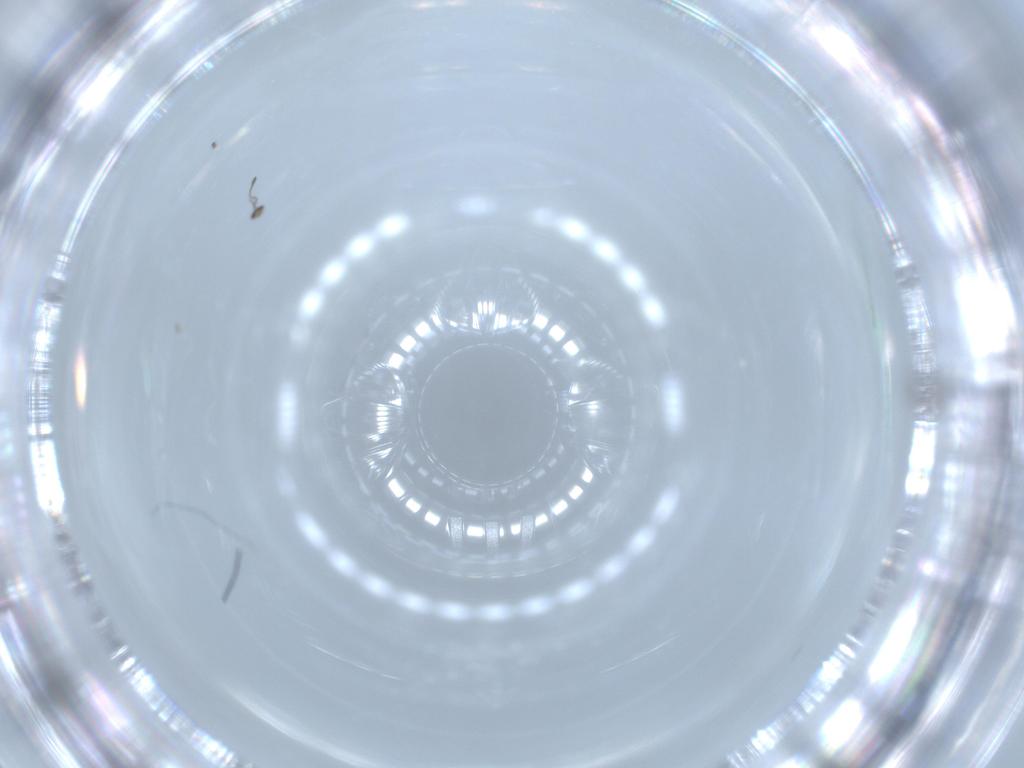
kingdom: Animalia
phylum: Arthropoda
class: Insecta
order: Hymenoptera
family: Mymaridae
